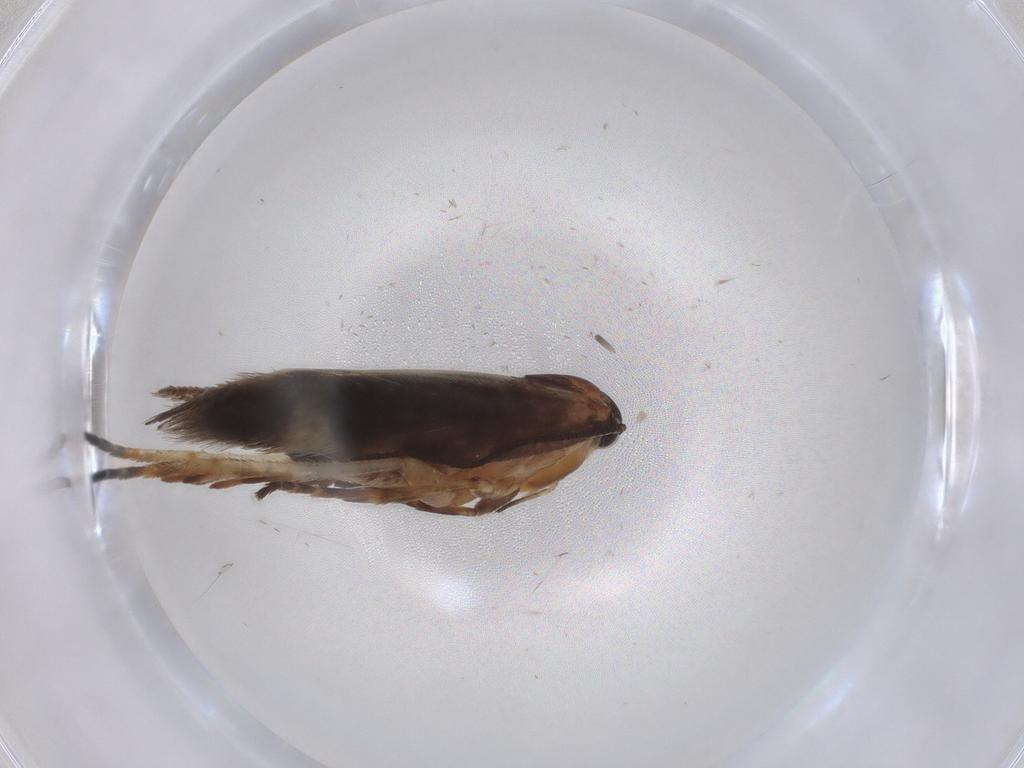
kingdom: Animalia
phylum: Arthropoda
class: Insecta
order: Lepidoptera
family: Gelechiidae
